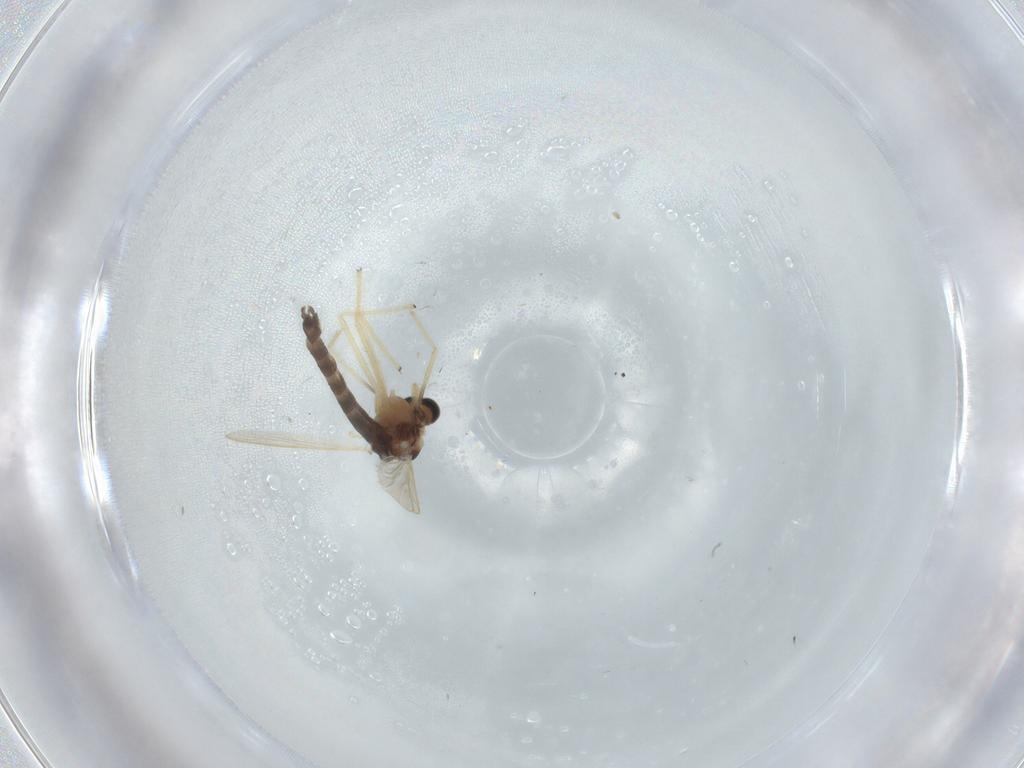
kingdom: Animalia
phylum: Arthropoda
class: Insecta
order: Diptera
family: Chironomidae
